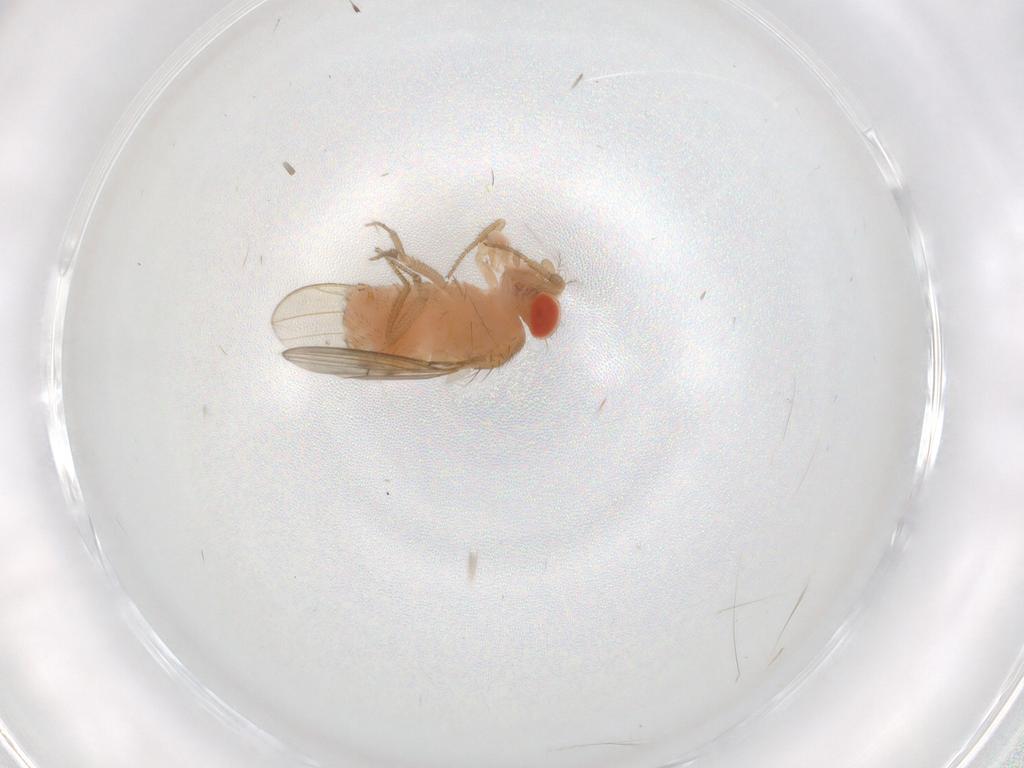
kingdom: Animalia
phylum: Arthropoda
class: Insecta
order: Diptera
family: Drosophilidae
